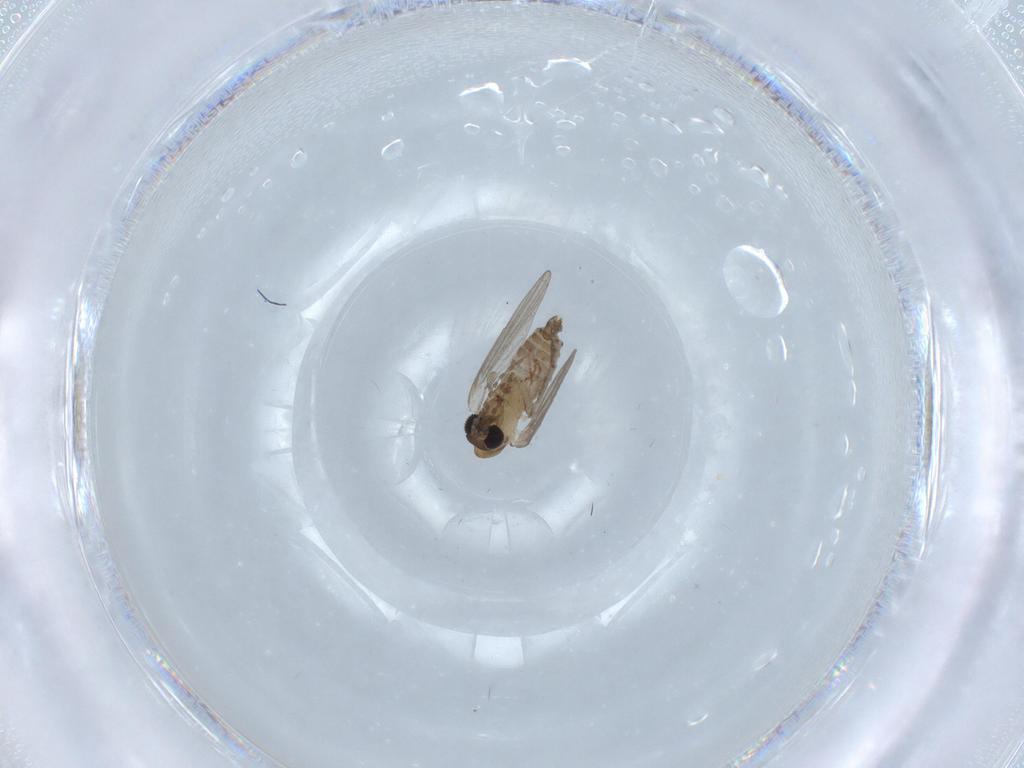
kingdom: Animalia
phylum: Arthropoda
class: Insecta
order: Diptera
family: Psychodidae
